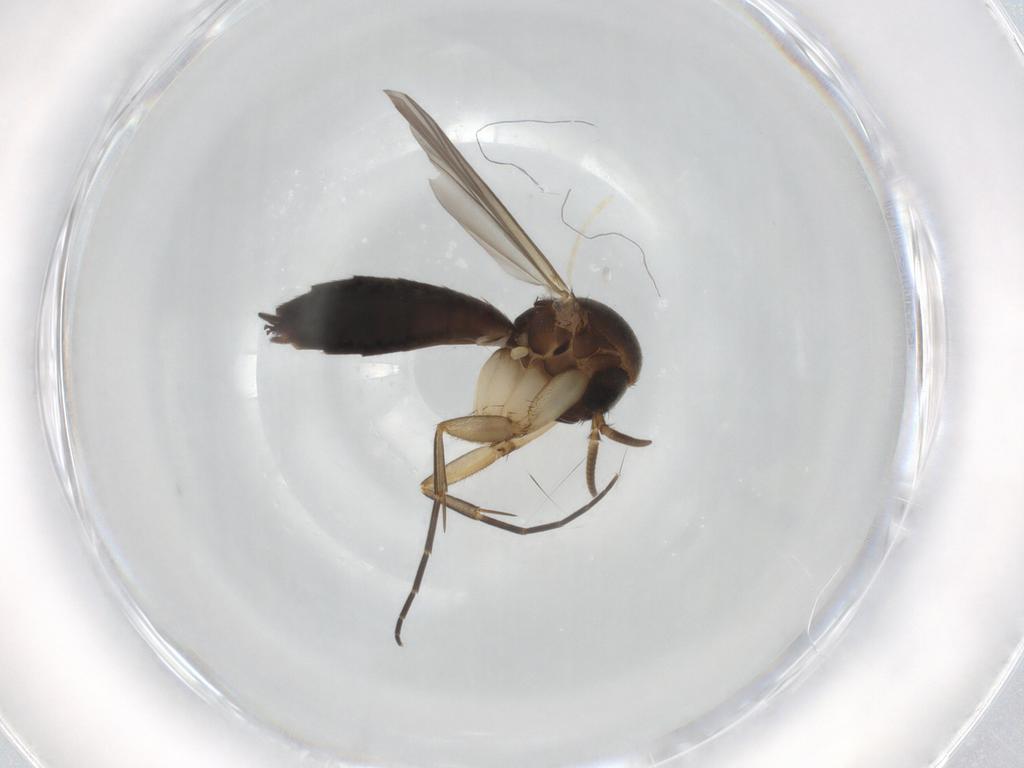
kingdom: Animalia
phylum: Arthropoda
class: Insecta
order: Diptera
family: Mycetophilidae
